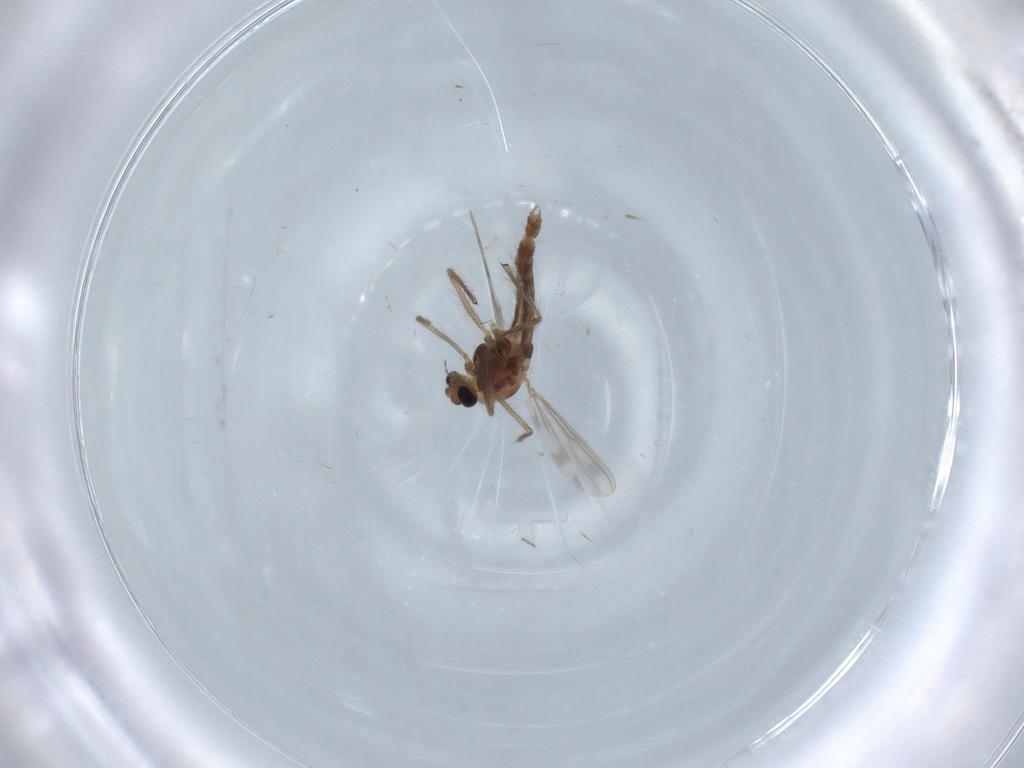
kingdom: Animalia
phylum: Arthropoda
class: Insecta
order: Diptera
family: Chironomidae
